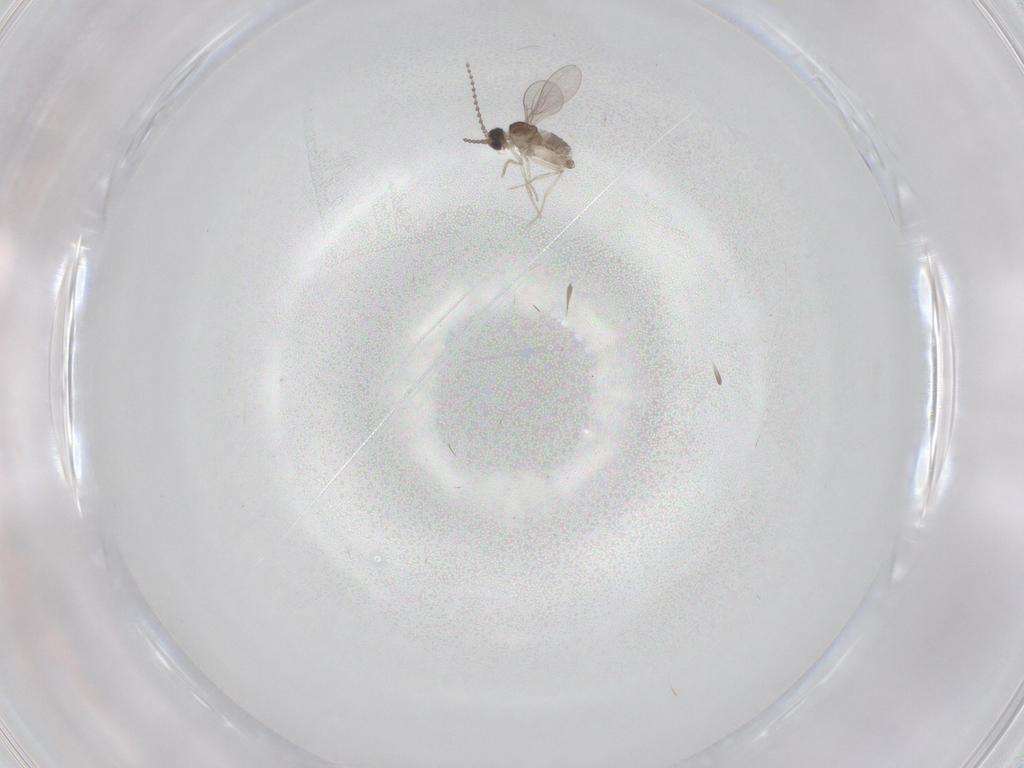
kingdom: Animalia
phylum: Arthropoda
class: Insecta
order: Diptera
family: Cecidomyiidae
